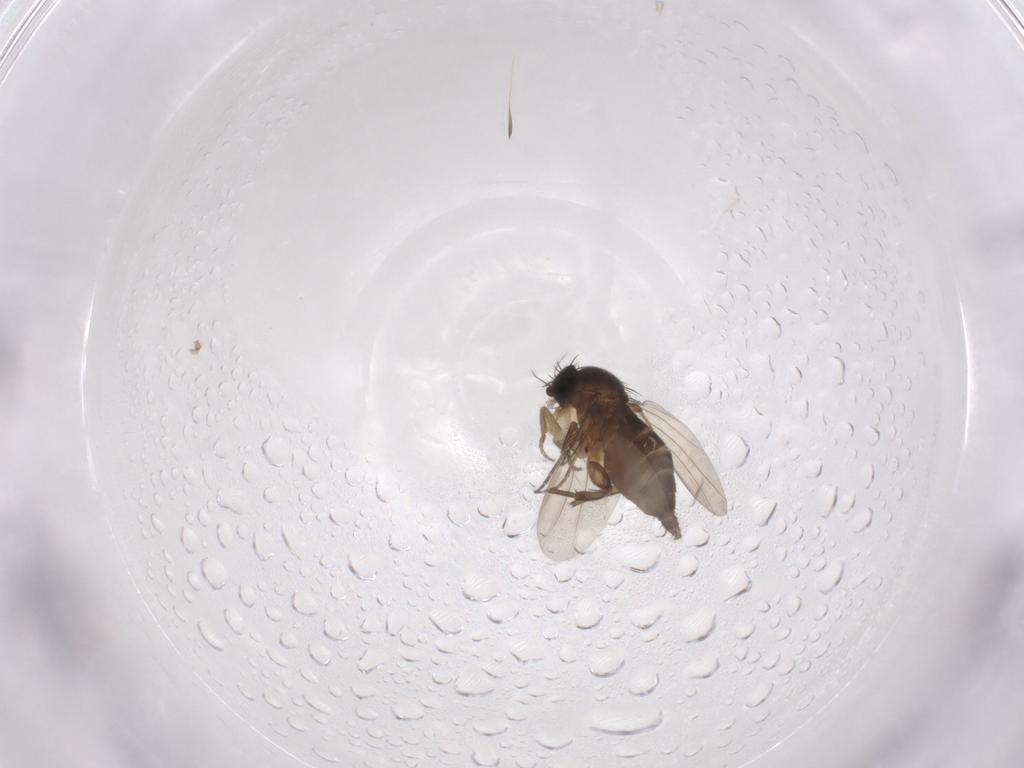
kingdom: Animalia
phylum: Arthropoda
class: Insecta
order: Diptera
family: Phoridae
